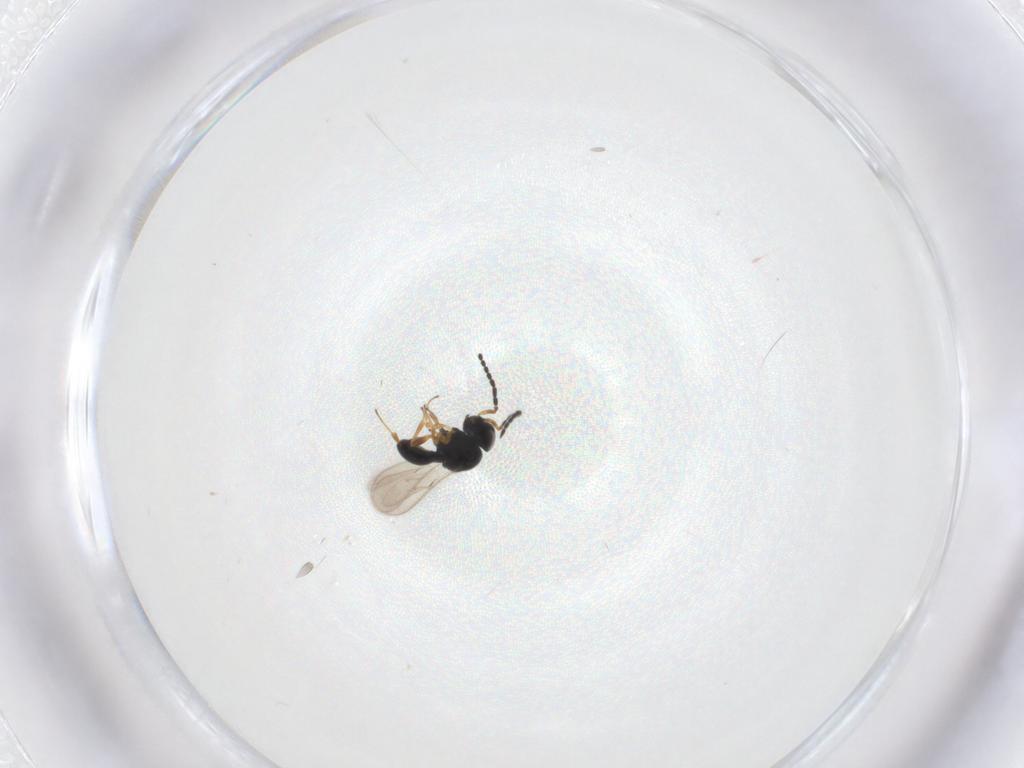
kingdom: Animalia
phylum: Arthropoda
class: Insecta
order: Hymenoptera
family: Scelionidae
